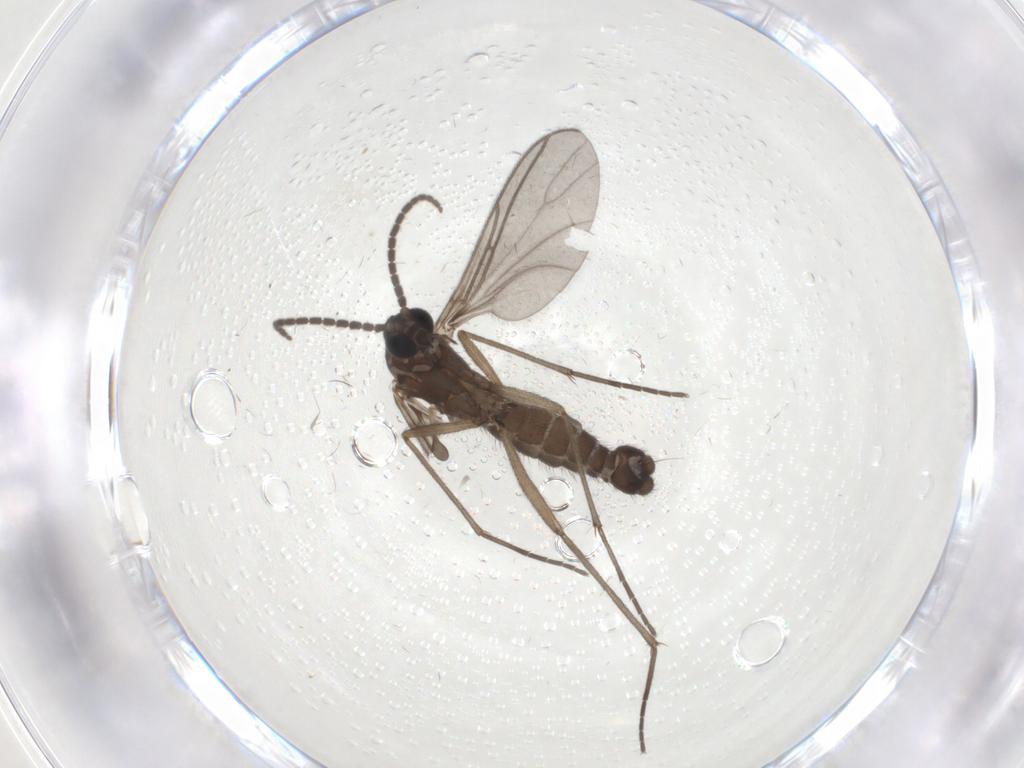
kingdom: Animalia
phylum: Arthropoda
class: Insecta
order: Diptera
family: Sciaridae
